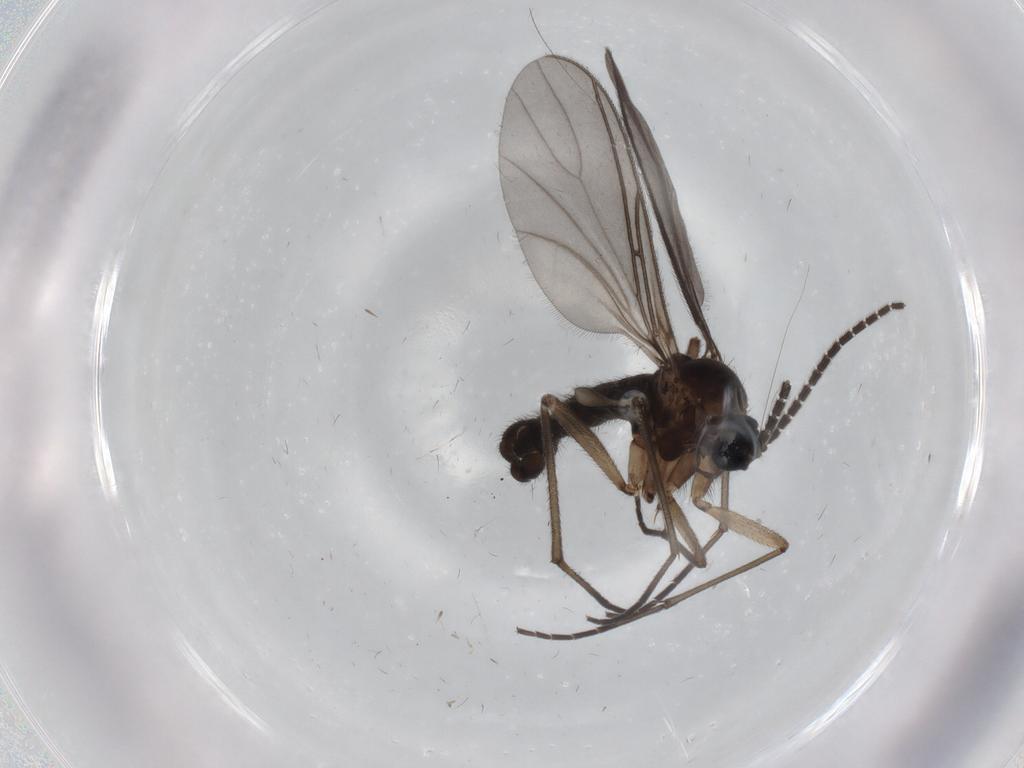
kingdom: Animalia
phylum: Arthropoda
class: Insecta
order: Diptera
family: Sciaridae
